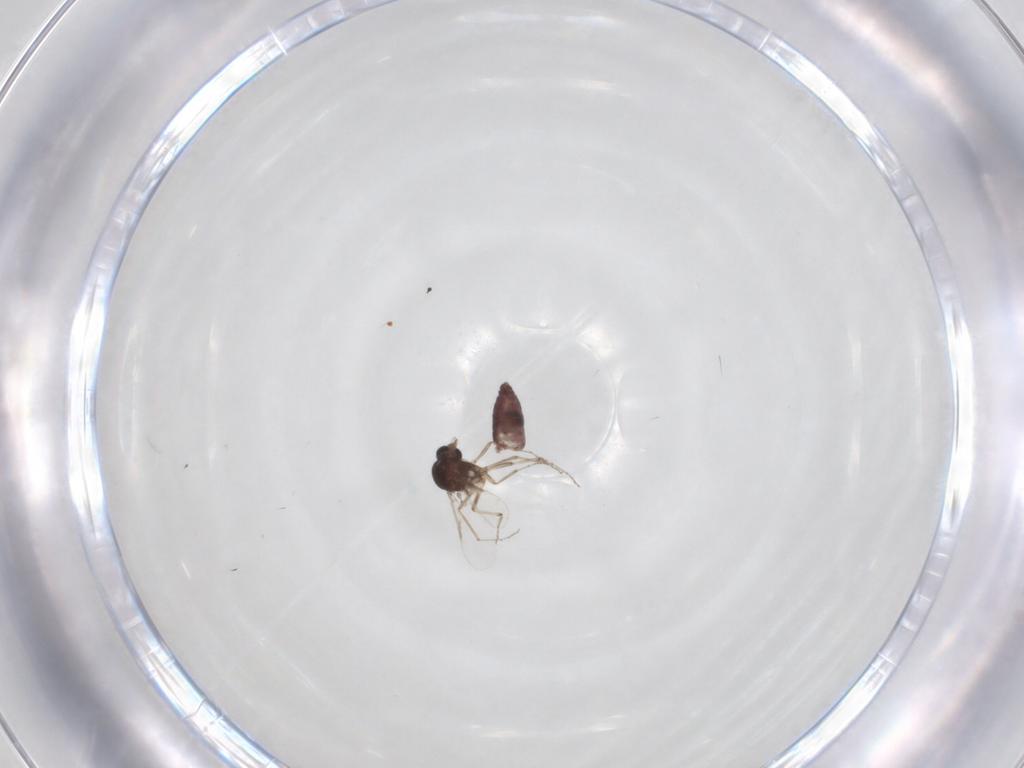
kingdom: Animalia
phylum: Arthropoda
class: Insecta
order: Diptera
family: Ceratopogonidae
